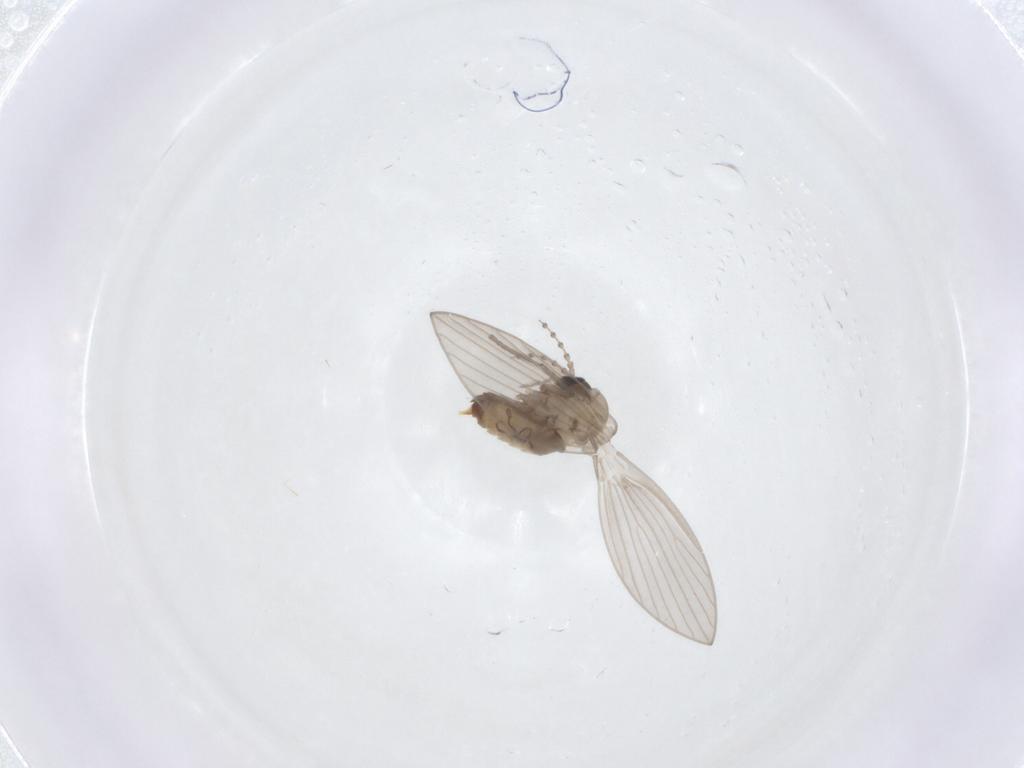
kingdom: Animalia
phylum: Arthropoda
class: Insecta
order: Diptera
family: Psychodidae
